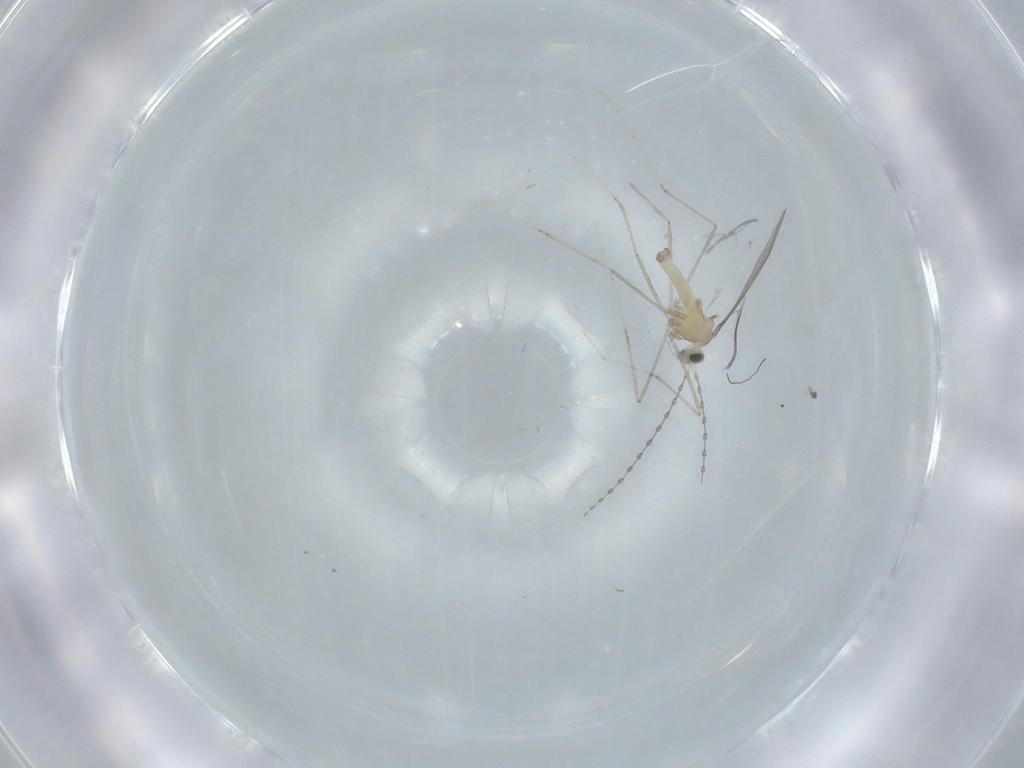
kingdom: Animalia
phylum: Arthropoda
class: Insecta
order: Diptera
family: Cecidomyiidae
